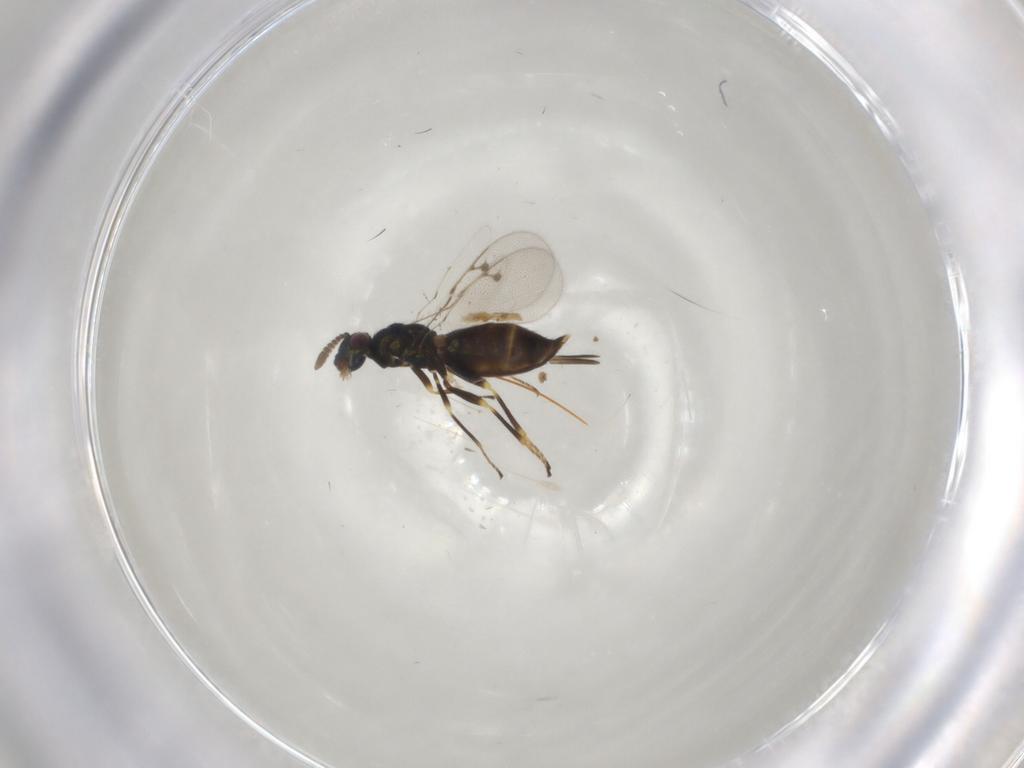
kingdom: Animalia
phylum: Arthropoda
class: Insecta
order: Hymenoptera
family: Pirenidae
